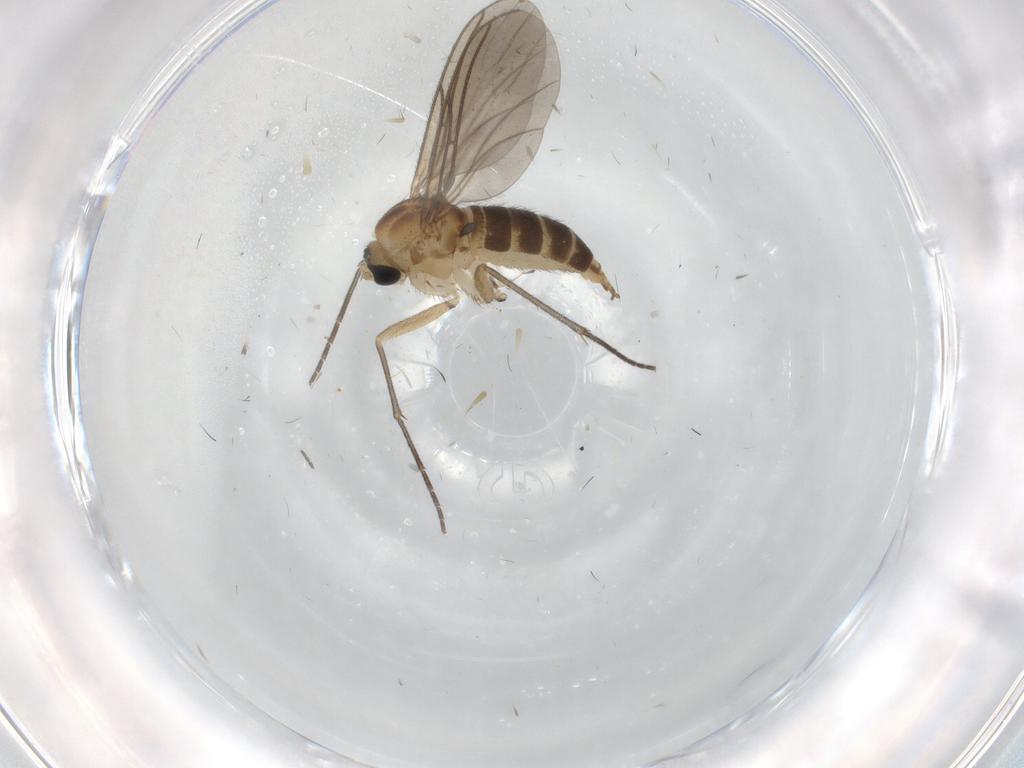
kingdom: Animalia
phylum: Arthropoda
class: Insecta
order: Diptera
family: Sciaridae
